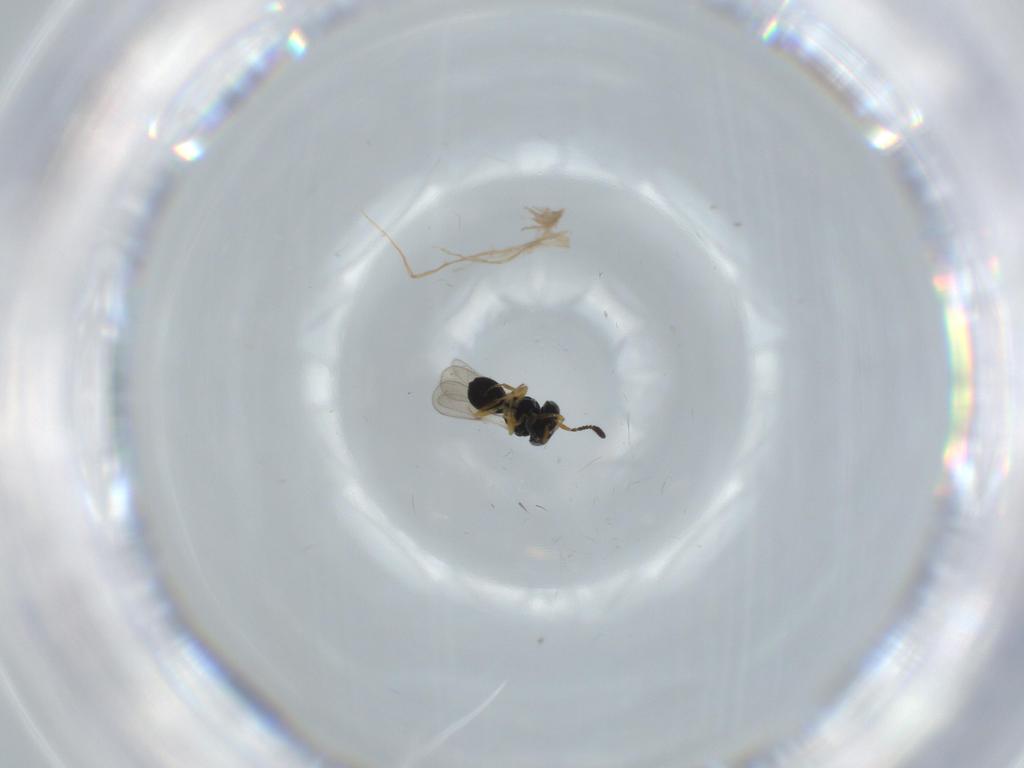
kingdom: Animalia
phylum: Arthropoda
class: Insecta
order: Hymenoptera
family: Scelionidae
